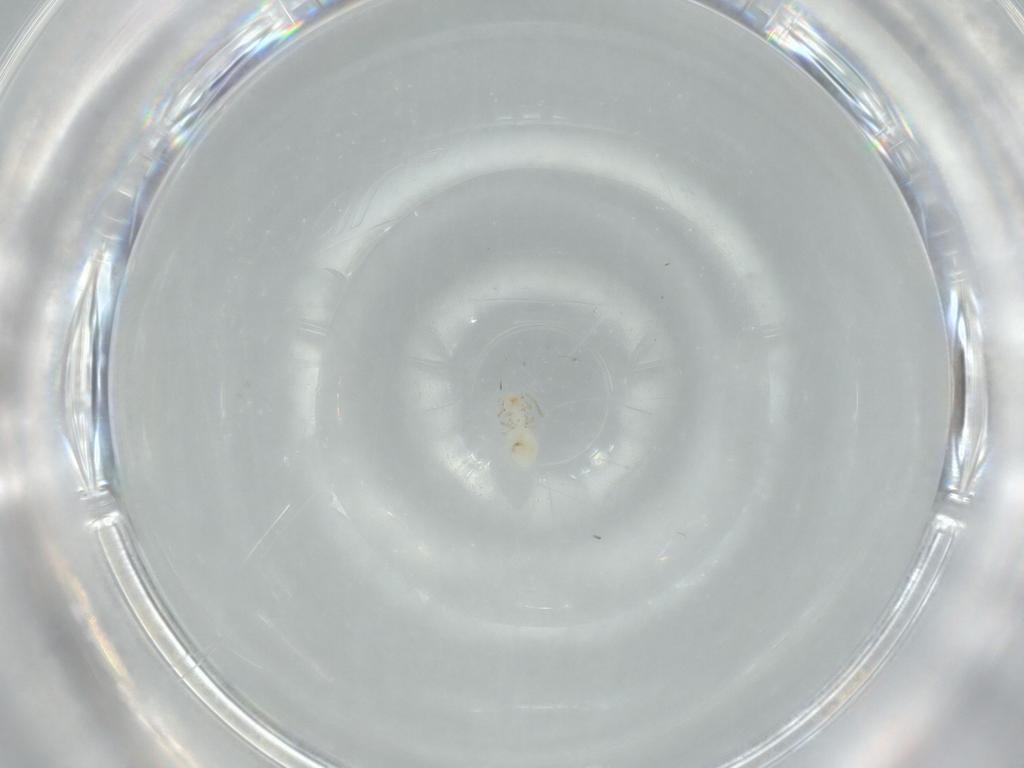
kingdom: Animalia
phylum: Arthropoda
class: Insecta
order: Psocodea
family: Caeciliusidae
